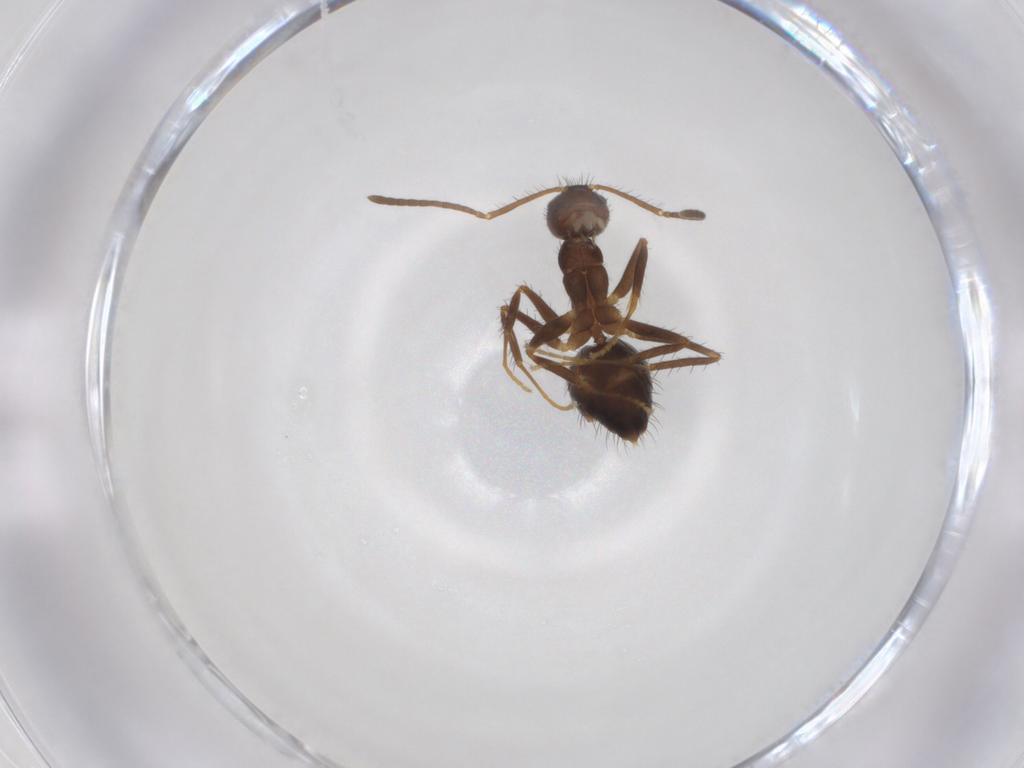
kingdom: Animalia
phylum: Arthropoda
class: Insecta
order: Hymenoptera
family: Formicidae
